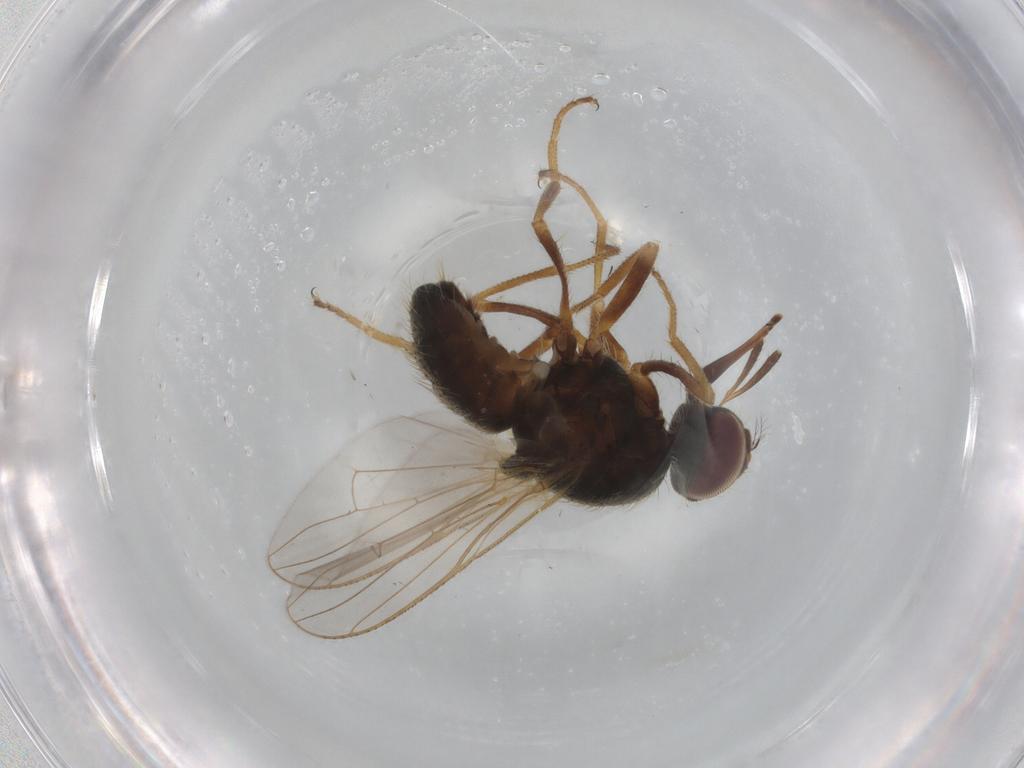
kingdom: Animalia
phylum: Arthropoda
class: Insecta
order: Diptera
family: Muscidae
